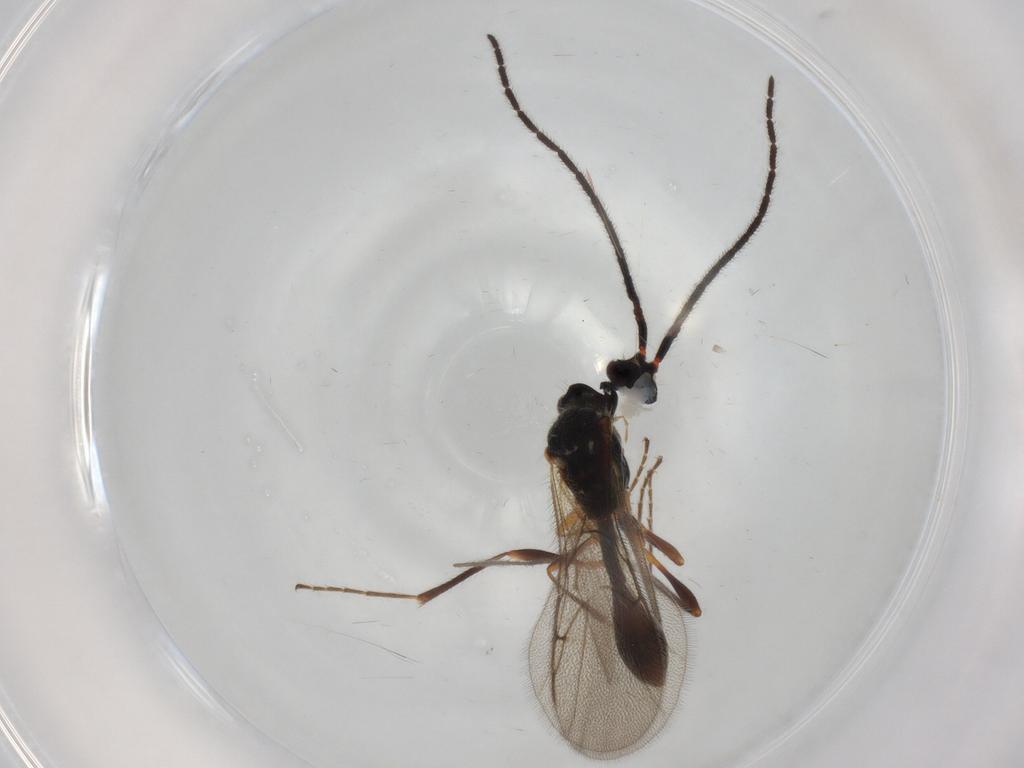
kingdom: Animalia
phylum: Arthropoda
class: Insecta
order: Hymenoptera
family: Diapriidae
